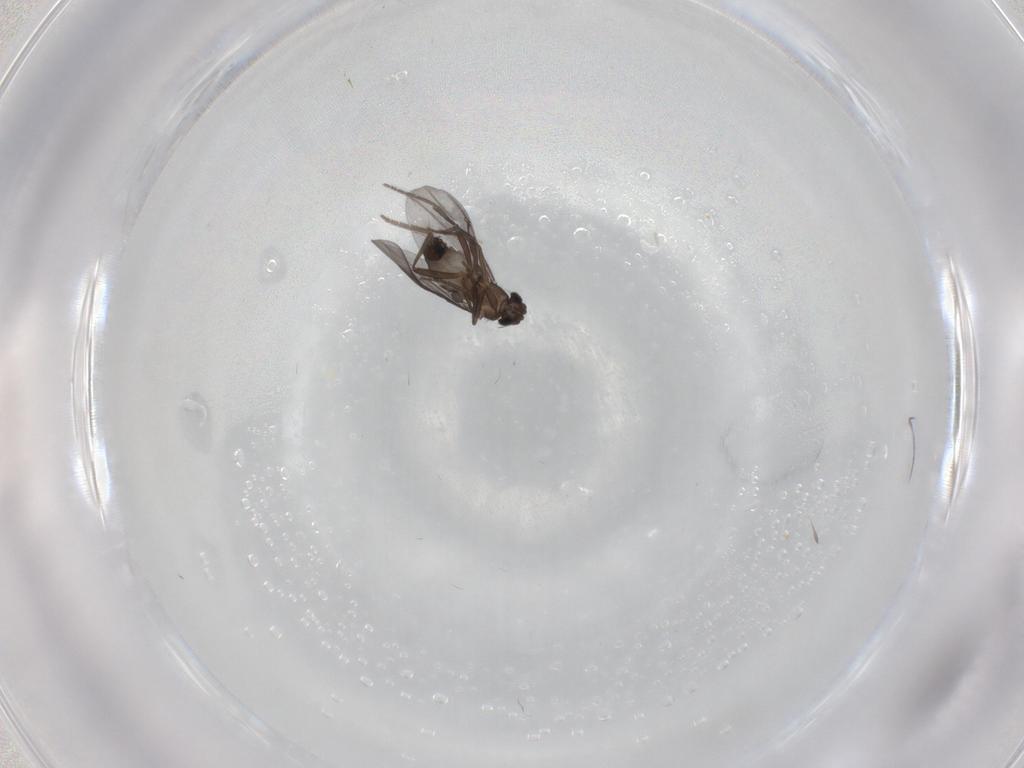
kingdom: Animalia
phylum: Arthropoda
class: Insecta
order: Diptera
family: Phoridae
